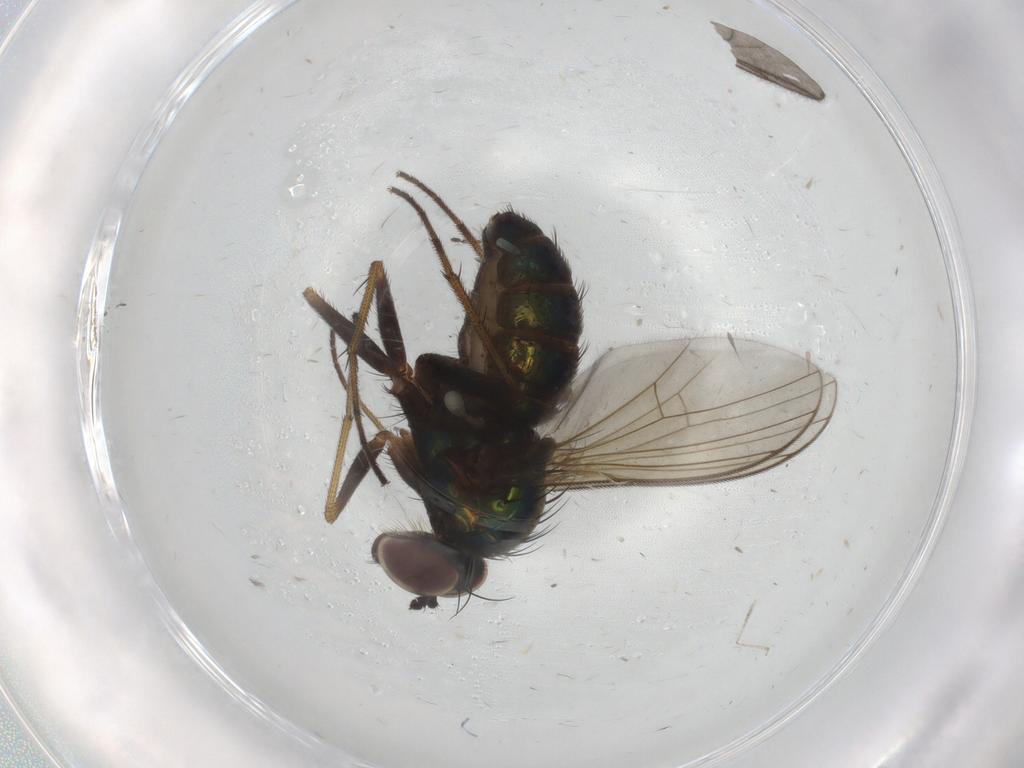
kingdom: Animalia
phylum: Arthropoda
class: Insecta
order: Diptera
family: Dolichopodidae
